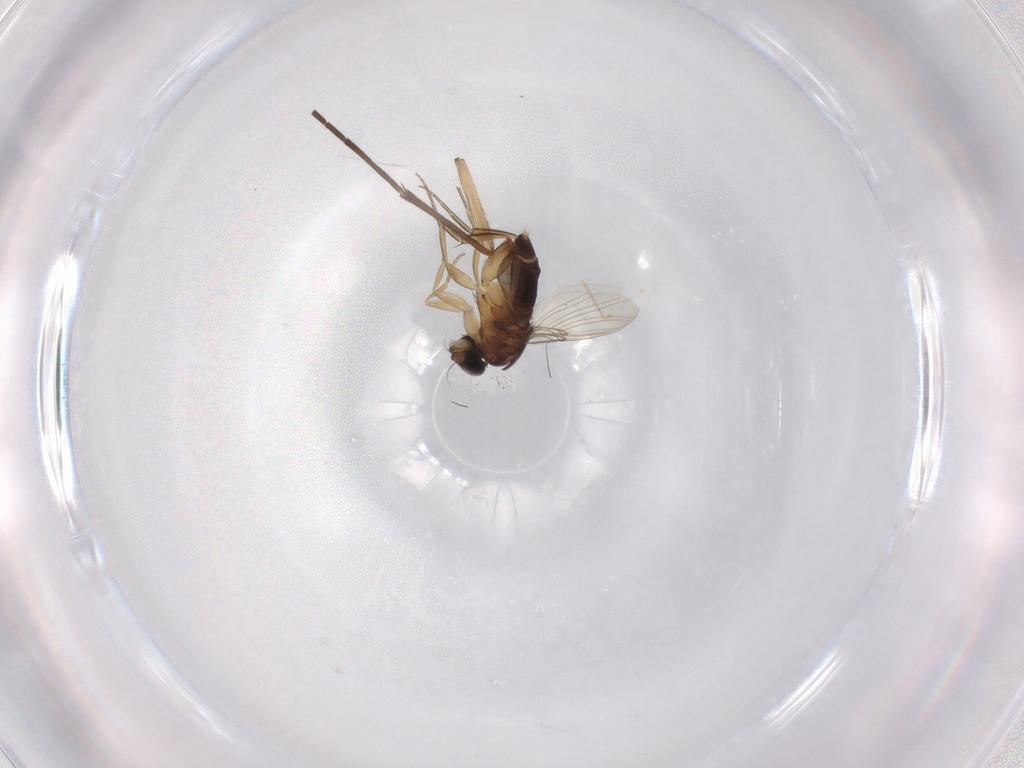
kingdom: Animalia
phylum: Arthropoda
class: Insecta
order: Diptera
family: Phoridae
